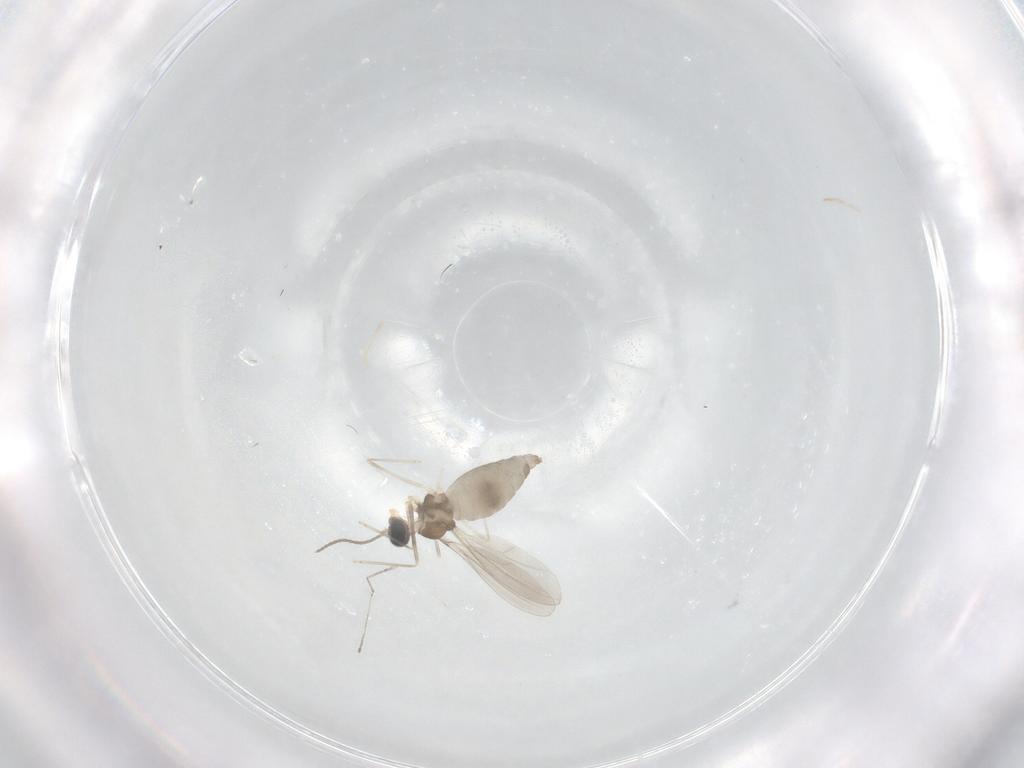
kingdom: Animalia
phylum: Arthropoda
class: Insecta
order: Diptera
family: Cecidomyiidae
